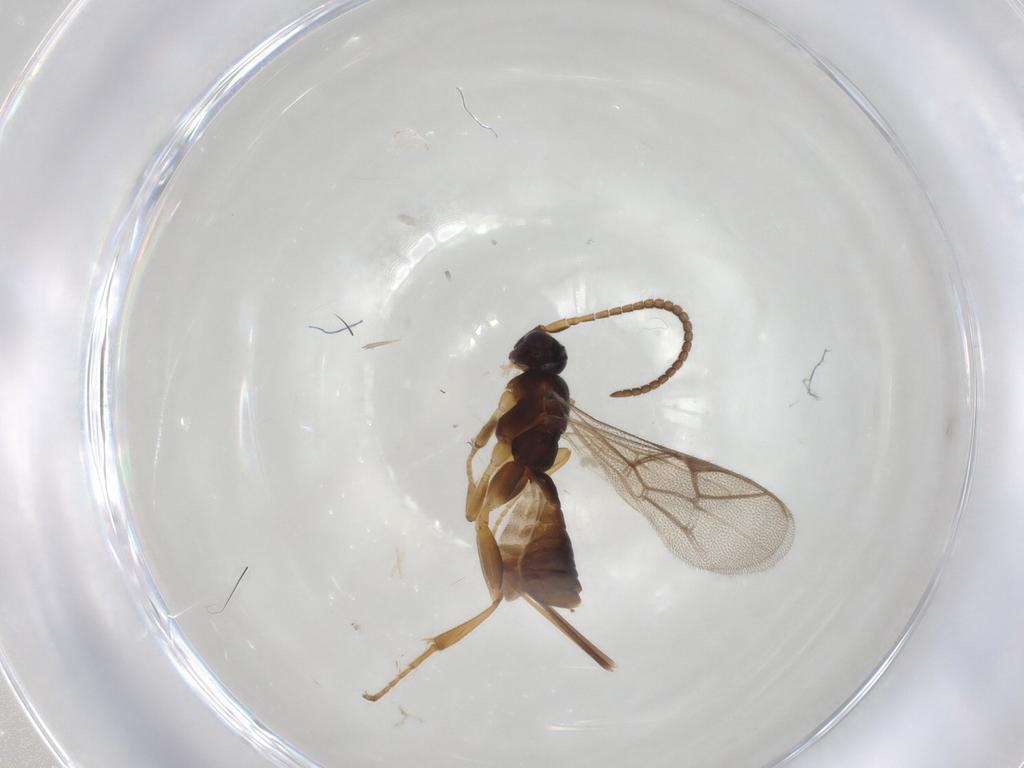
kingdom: Animalia
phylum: Arthropoda
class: Insecta
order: Hymenoptera
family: Ichneumonidae
